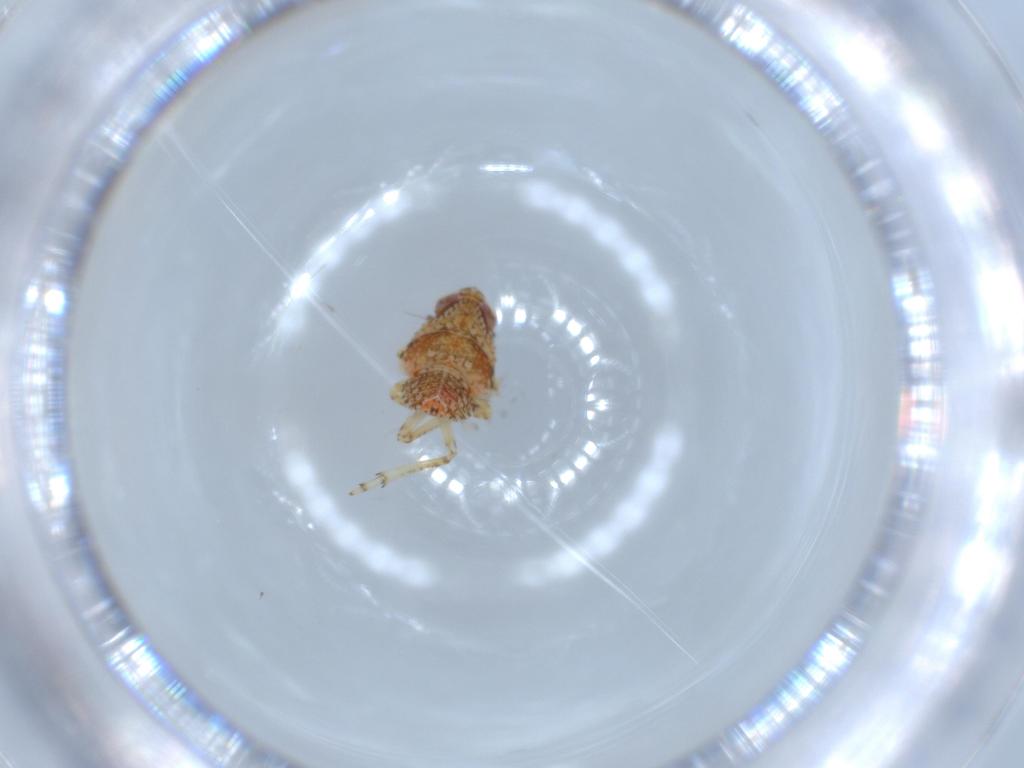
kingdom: Animalia
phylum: Arthropoda
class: Insecta
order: Hemiptera
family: Issidae
